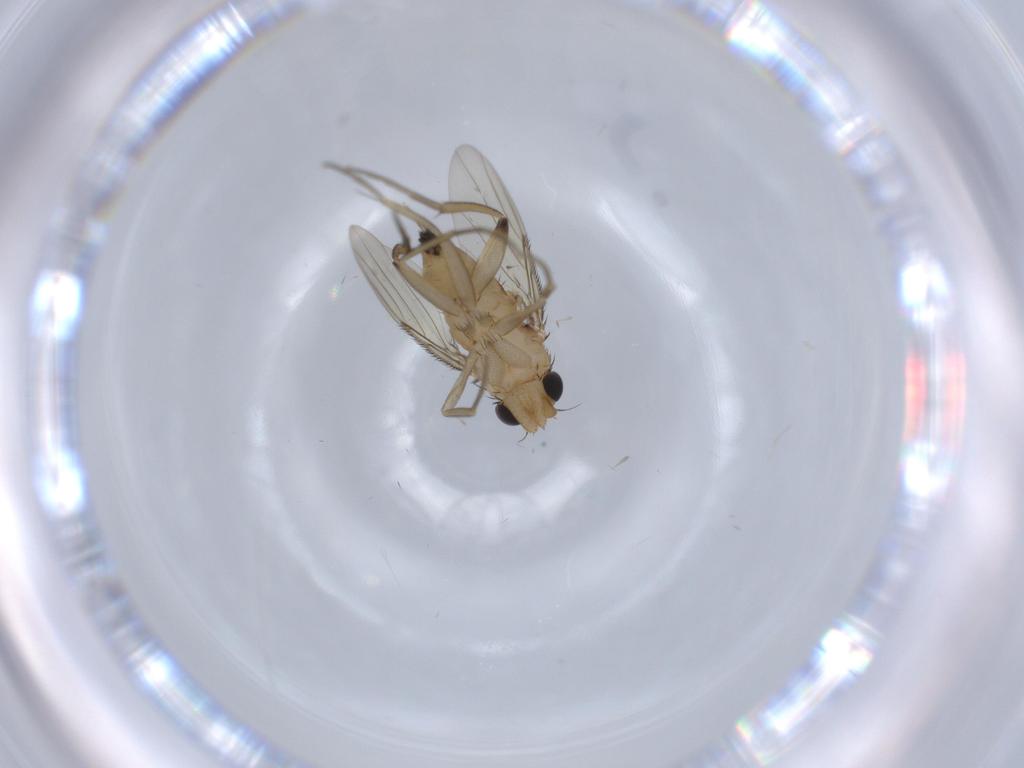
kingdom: Animalia
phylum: Arthropoda
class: Insecta
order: Diptera
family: Phoridae
